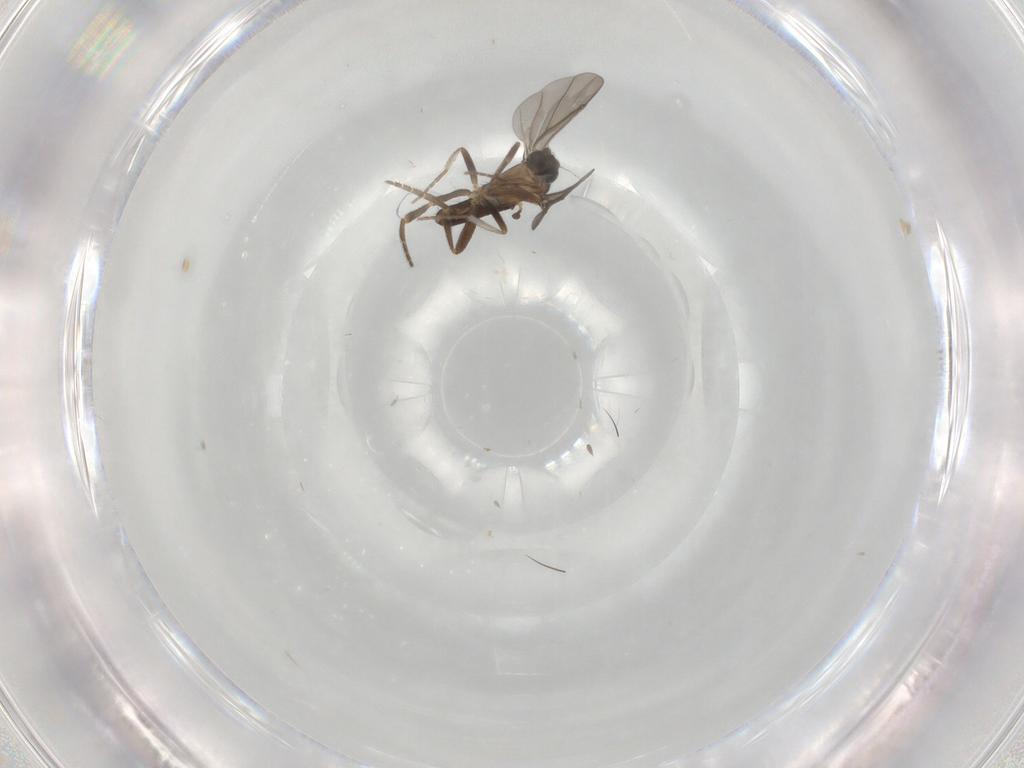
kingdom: Animalia
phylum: Arthropoda
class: Insecta
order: Diptera
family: Phoridae
